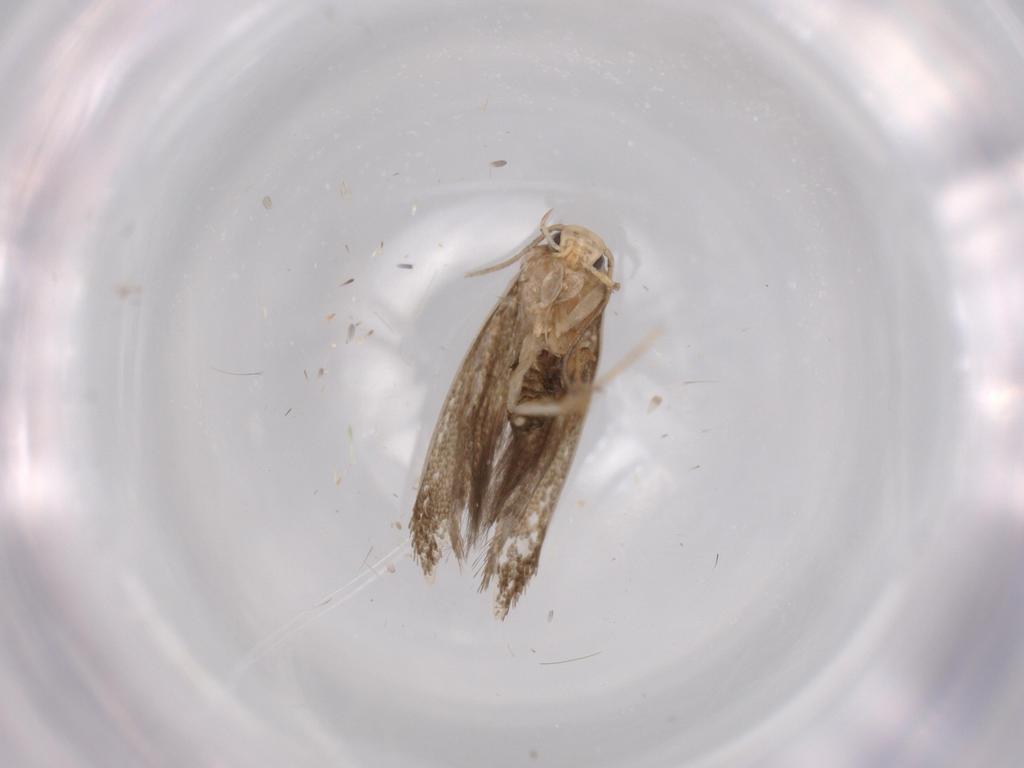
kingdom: Animalia
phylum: Arthropoda
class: Insecta
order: Lepidoptera
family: Tineidae
